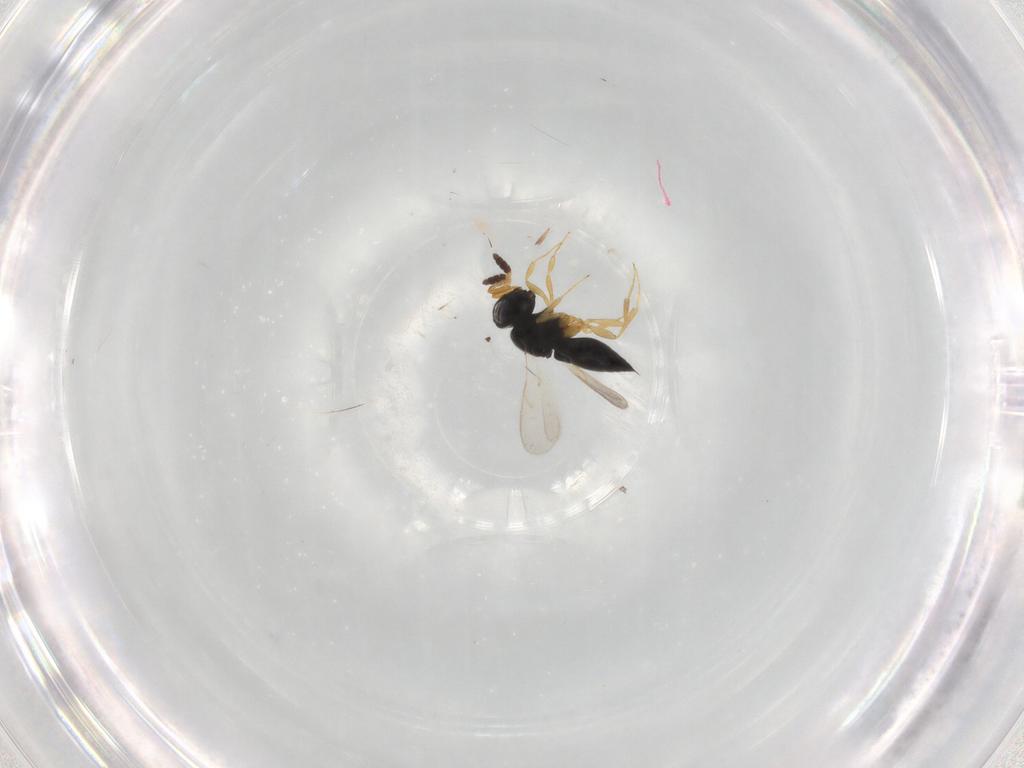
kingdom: Animalia
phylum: Arthropoda
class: Insecta
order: Hymenoptera
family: Scelionidae
